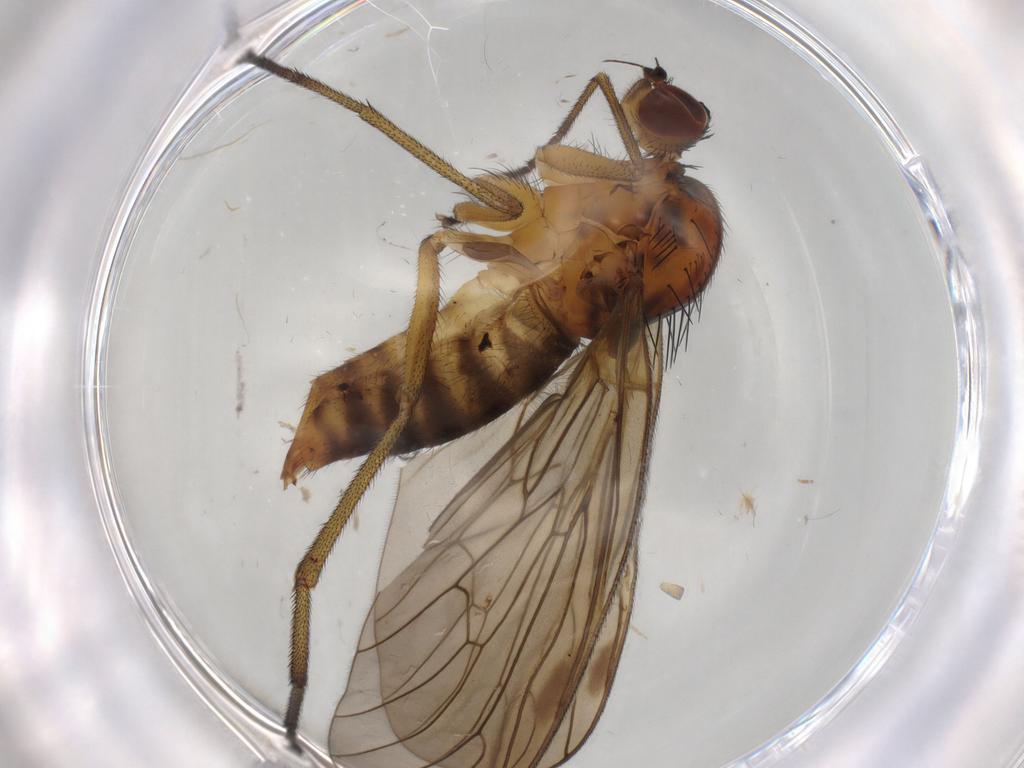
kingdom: Animalia
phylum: Arthropoda
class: Insecta
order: Diptera
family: Brachystomatidae
